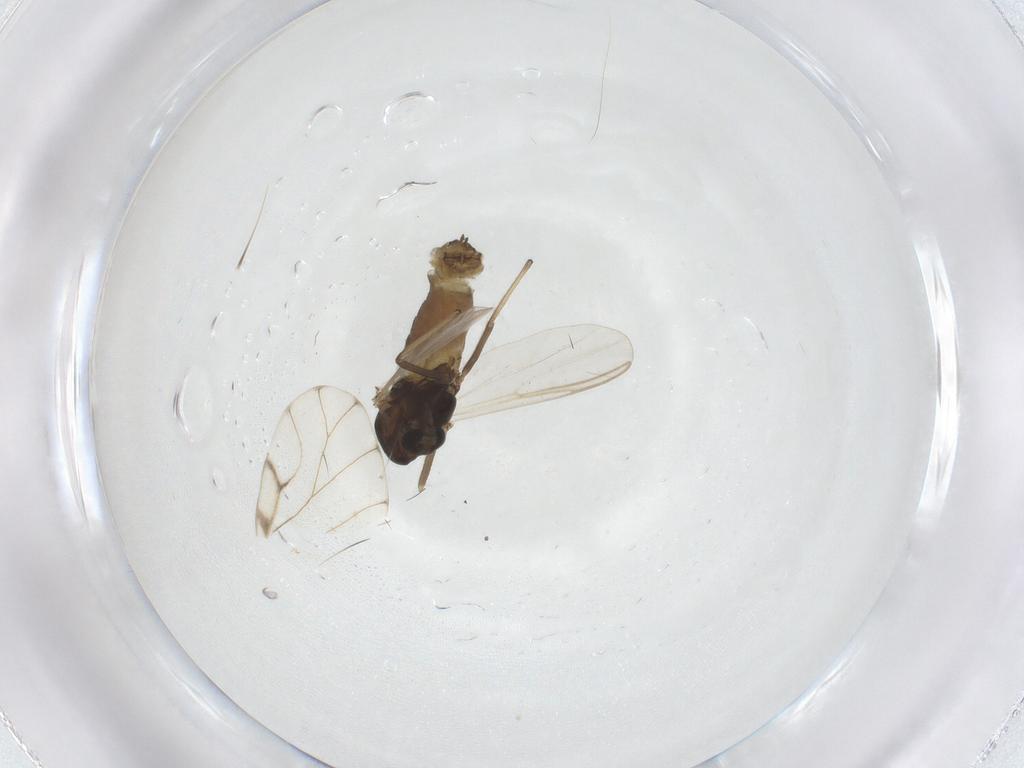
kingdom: Animalia
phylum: Arthropoda
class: Insecta
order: Diptera
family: Chironomidae
